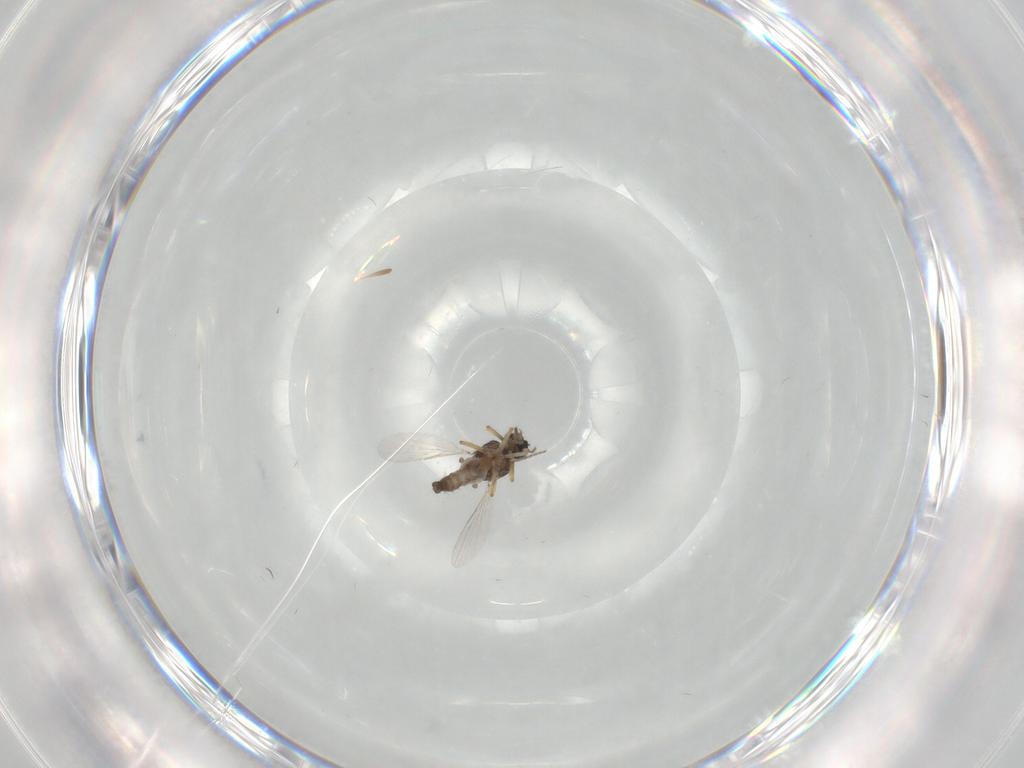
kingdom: Animalia
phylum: Arthropoda
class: Insecta
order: Diptera
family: Ceratopogonidae
